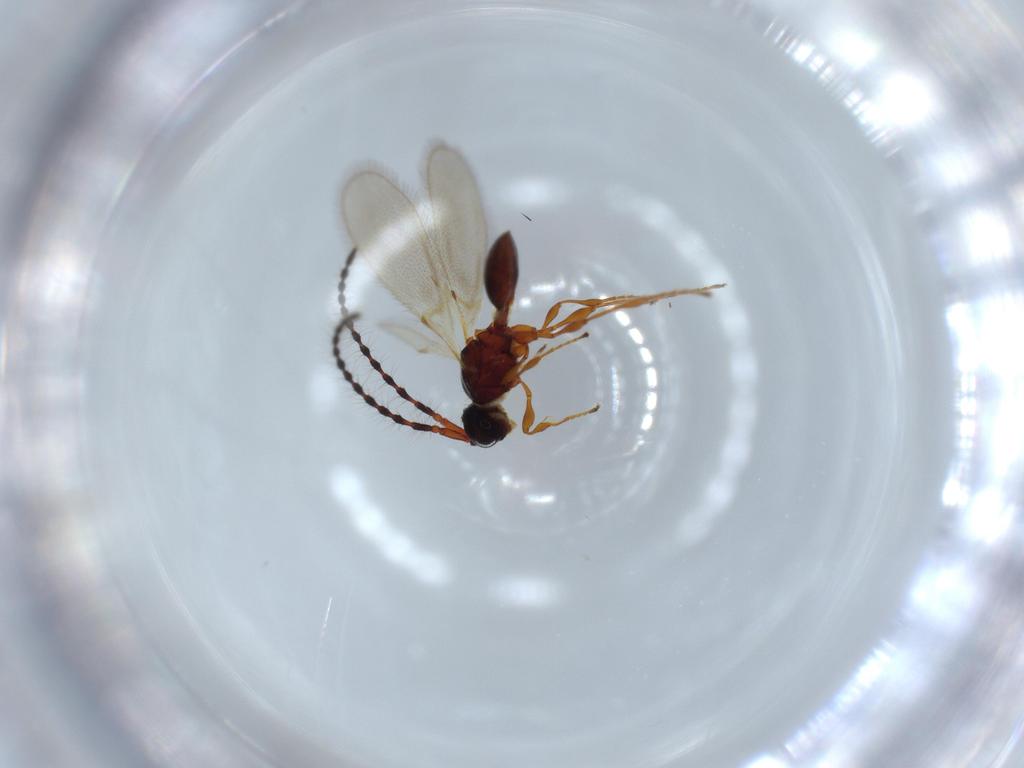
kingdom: Animalia
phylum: Arthropoda
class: Insecta
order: Hymenoptera
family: Diapriidae
